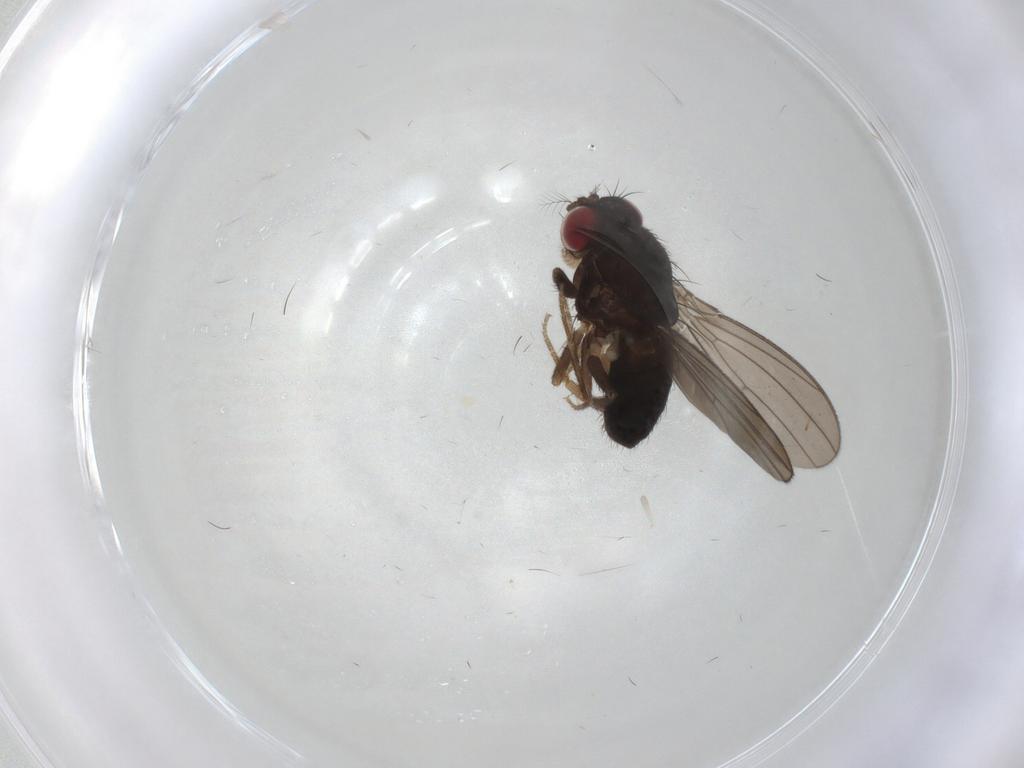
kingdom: Animalia
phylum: Arthropoda
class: Insecta
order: Diptera
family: Drosophilidae
